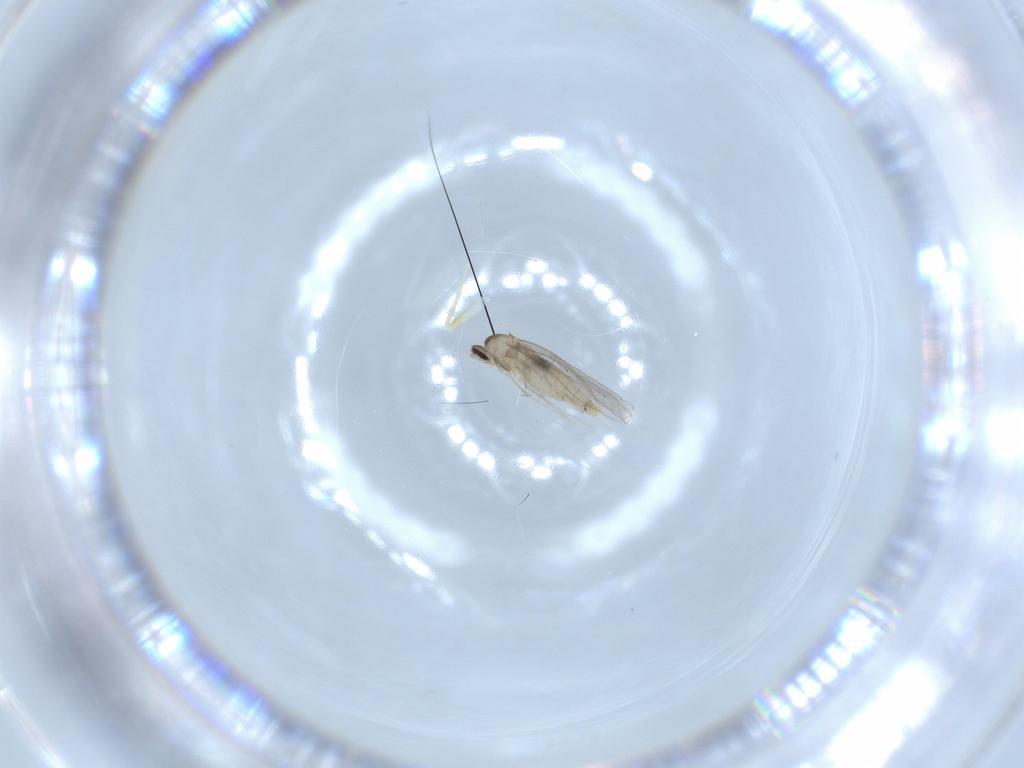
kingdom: Animalia
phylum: Arthropoda
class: Insecta
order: Diptera
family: Cecidomyiidae
